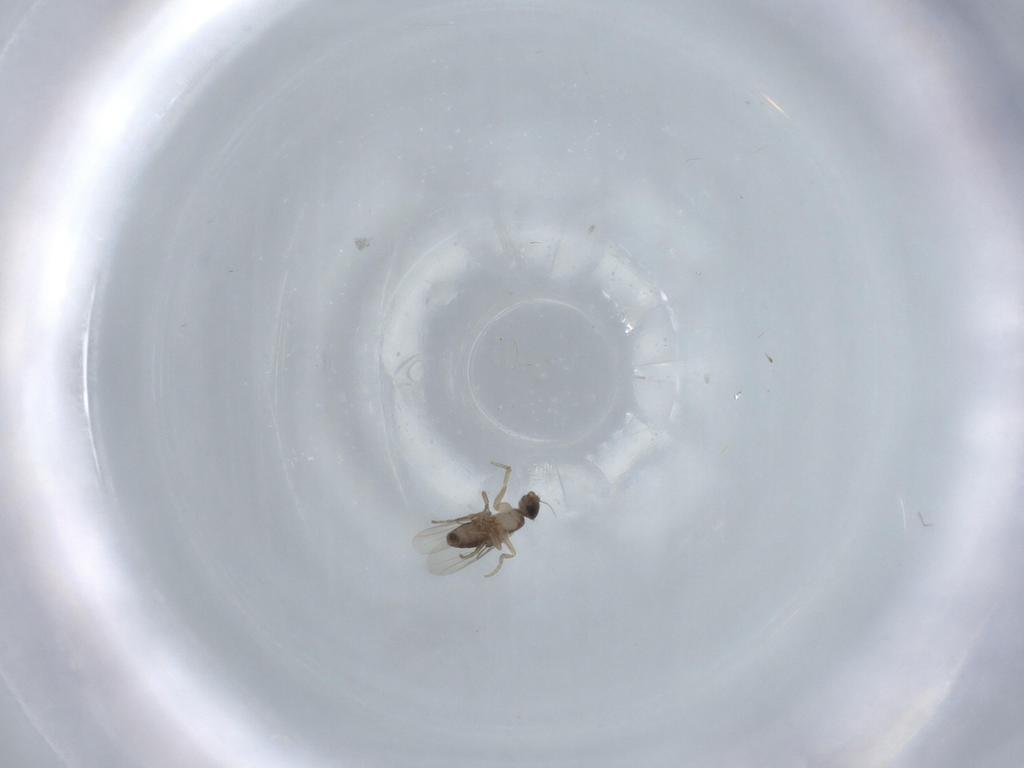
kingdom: Animalia
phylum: Arthropoda
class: Insecta
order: Diptera
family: Phoridae
